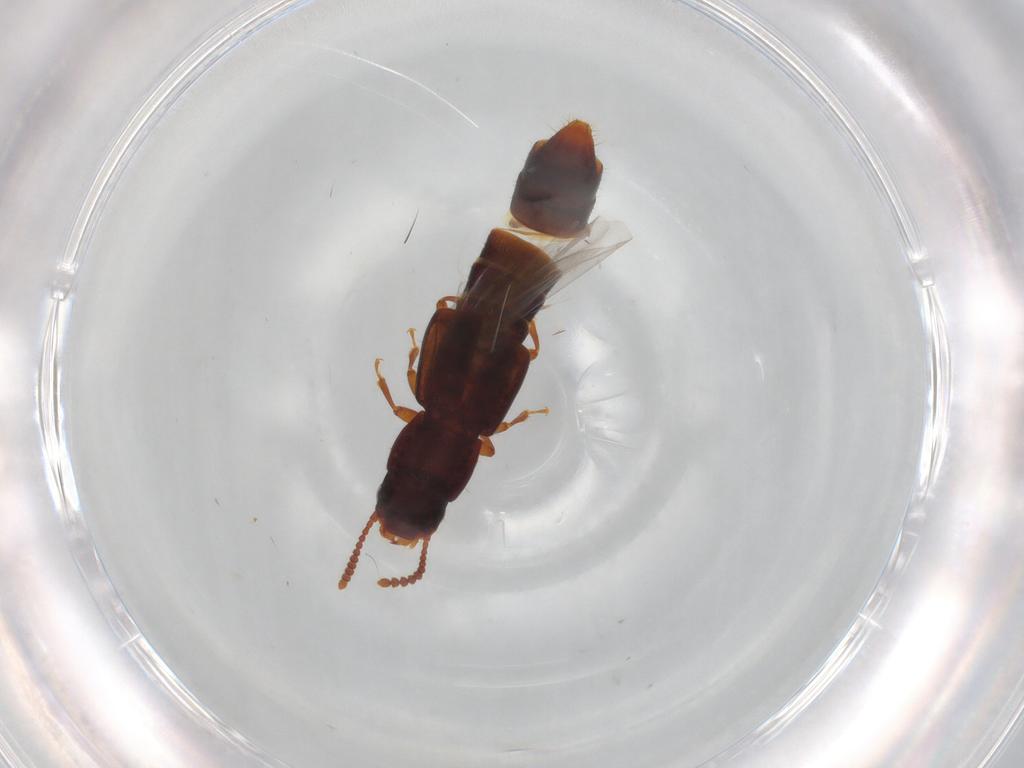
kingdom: Animalia
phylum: Arthropoda
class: Insecta
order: Coleoptera
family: Staphylinidae
